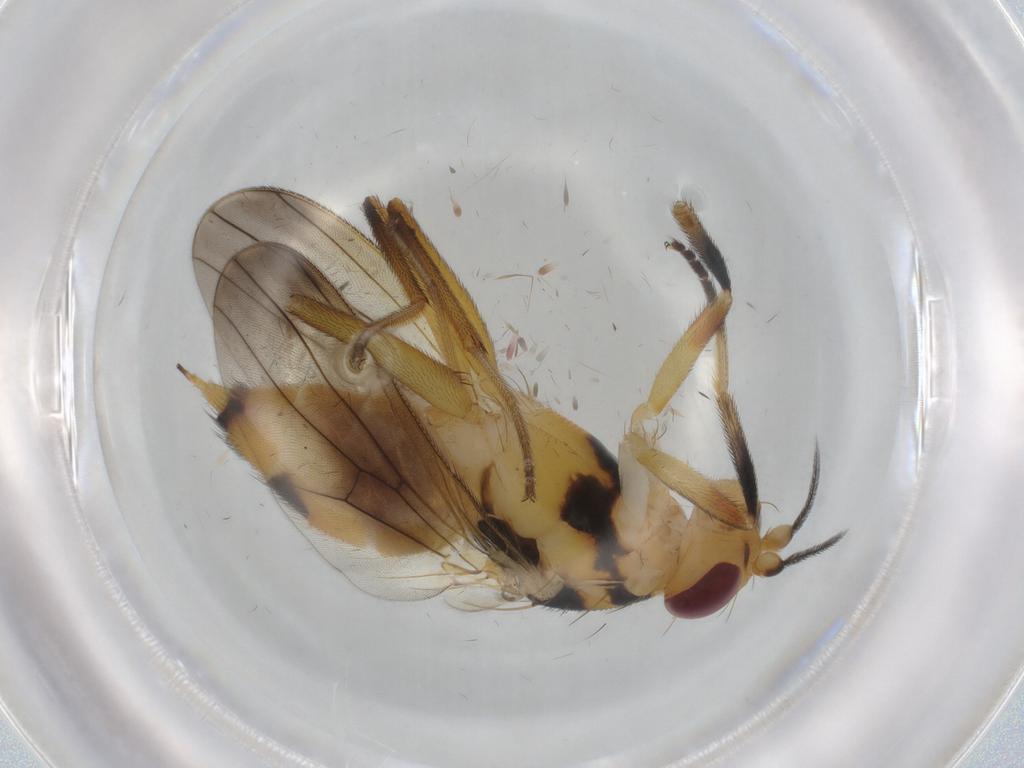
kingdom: Animalia
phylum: Arthropoda
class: Insecta
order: Diptera
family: Clusiidae
